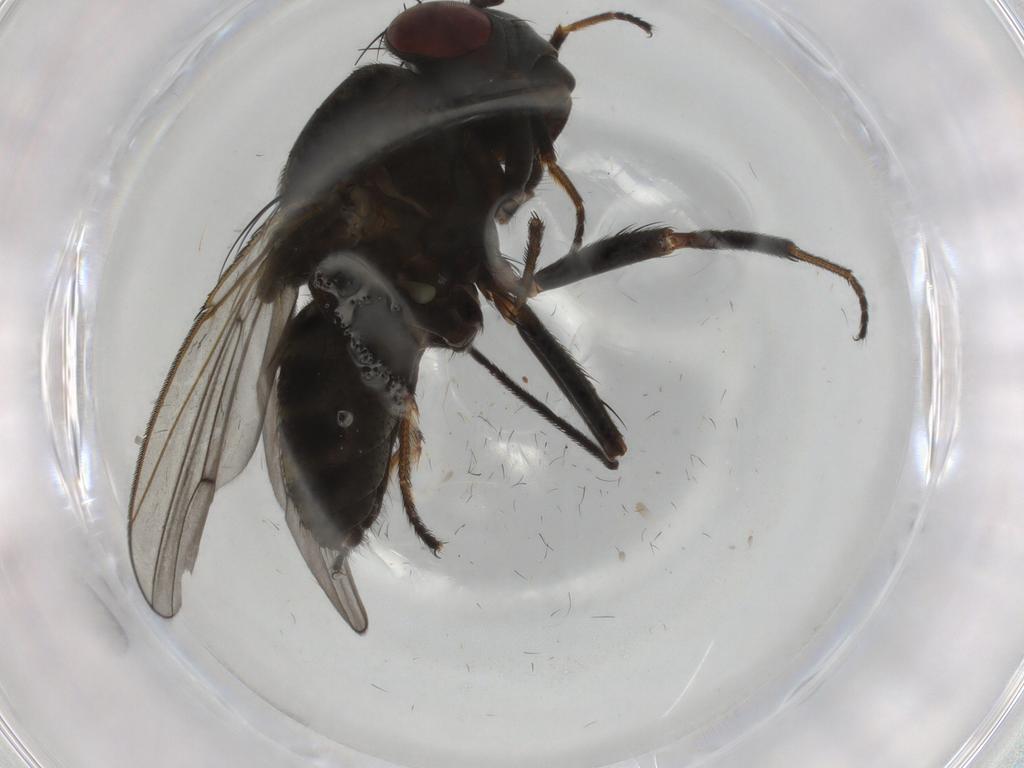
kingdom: Animalia
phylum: Arthropoda
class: Insecta
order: Diptera
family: Ephydridae
